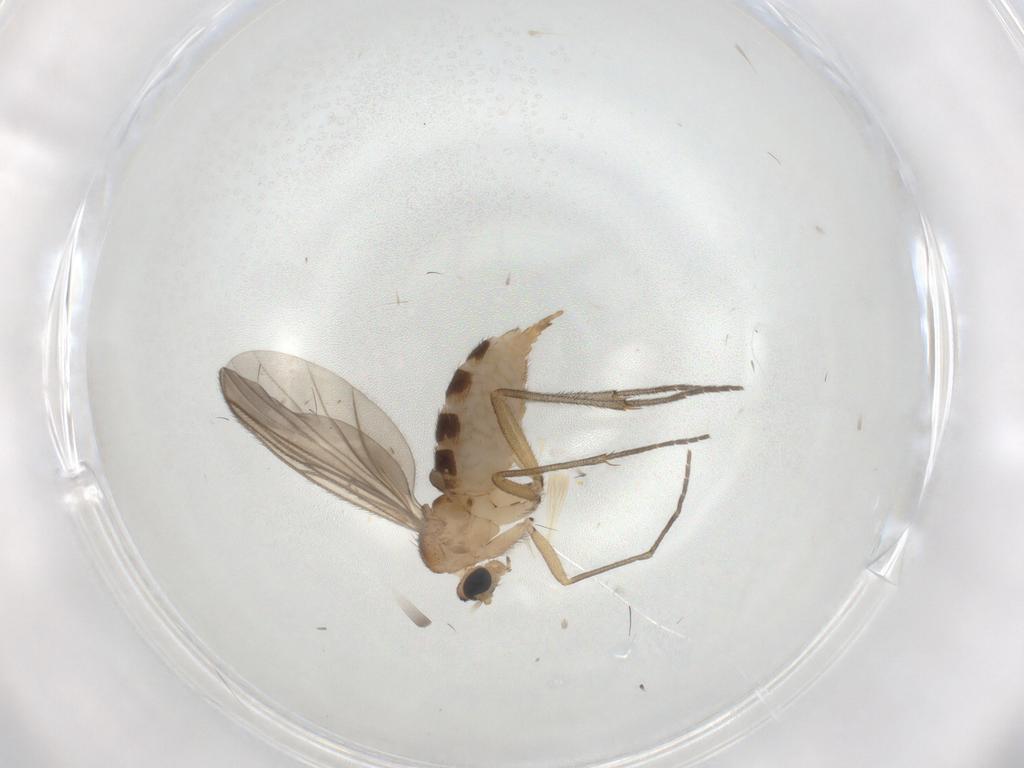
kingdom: Animalia
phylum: Arthropoda
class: Insecta
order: Diptera
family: Sciaridae
